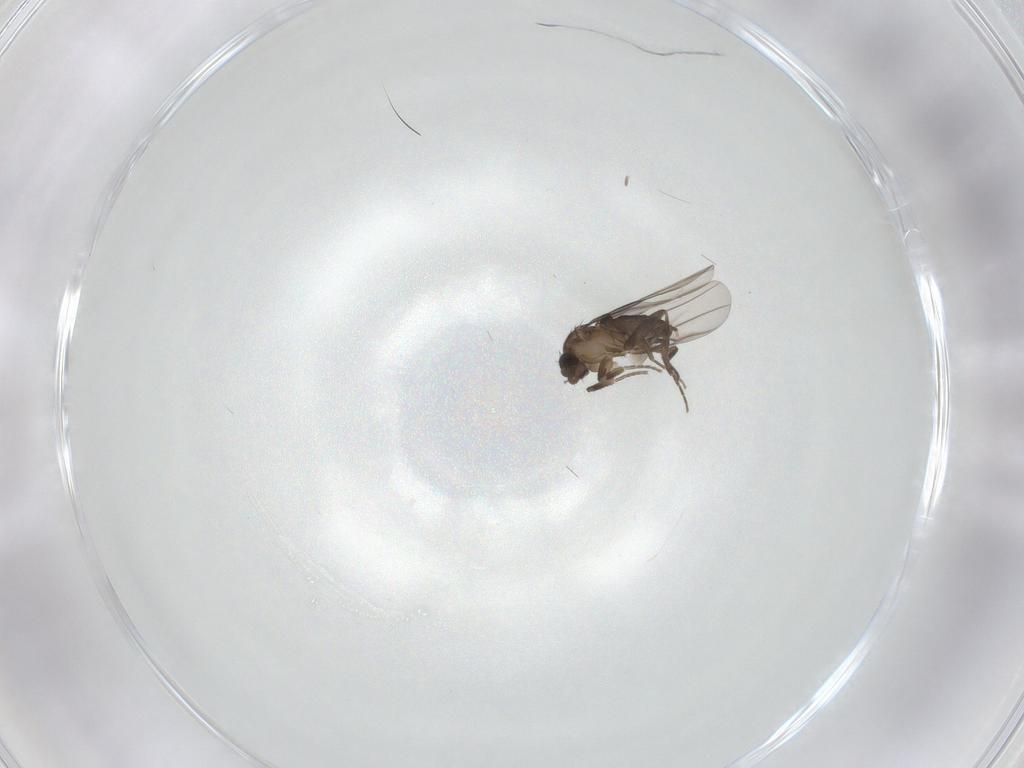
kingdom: Animalia
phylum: Arthropoda
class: Insecta
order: Diptera
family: Phoridae
